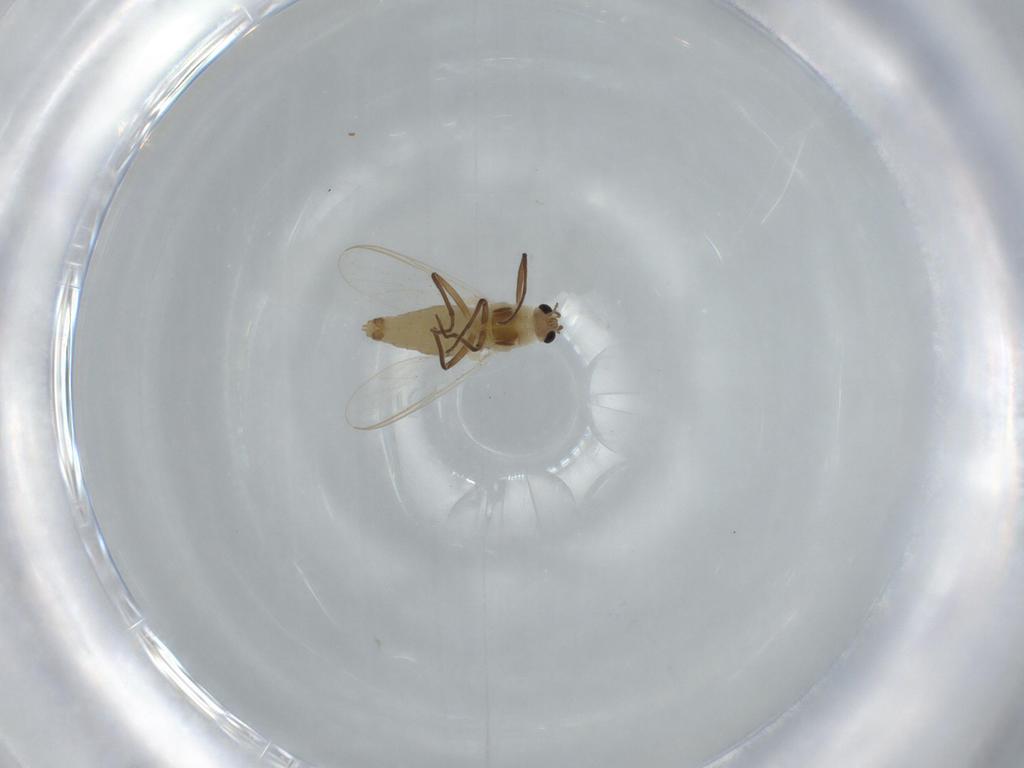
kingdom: Animalia
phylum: Arthropoda
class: Insecta
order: Diptera
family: Chironomidae
